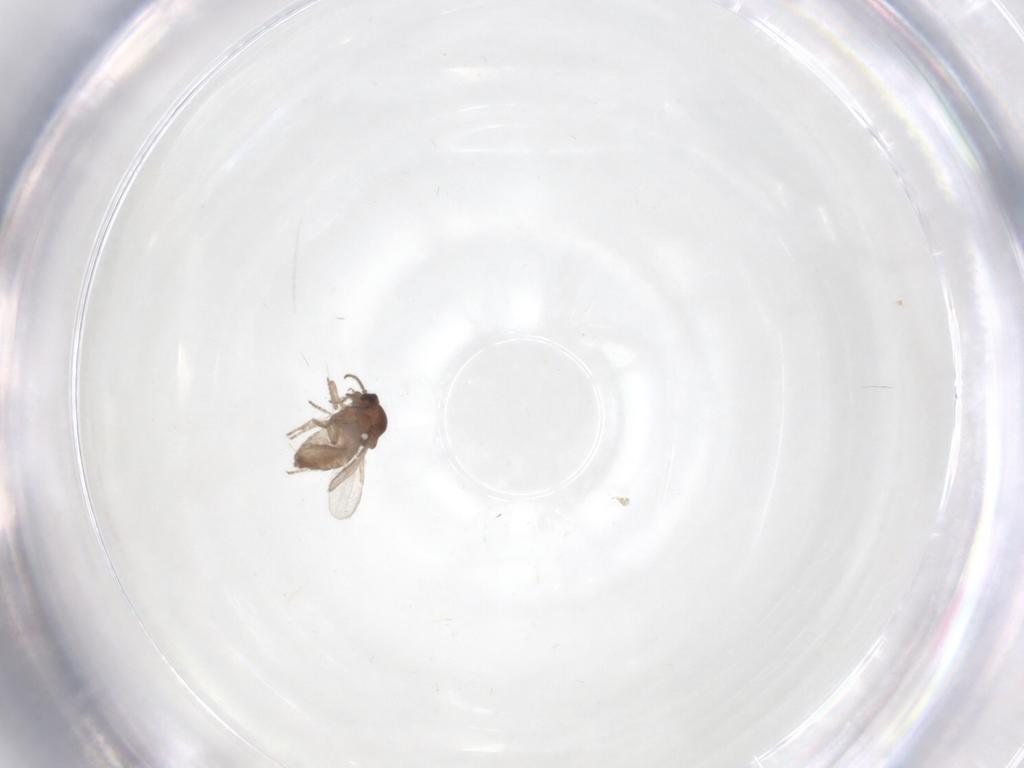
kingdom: Animalia
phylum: Arthropoda
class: Insecta
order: Diptera
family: Ceratopogonidae
